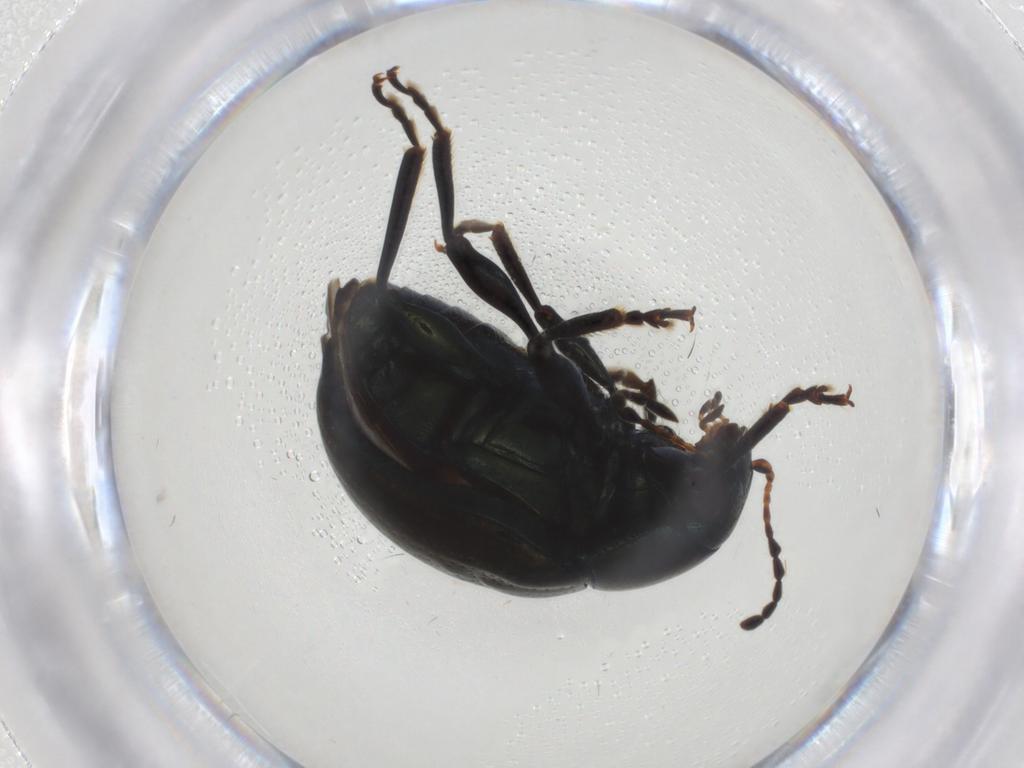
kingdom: Animalia
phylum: Arthropoda
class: Insecta
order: Coleoptera
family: Chrysomelidae
